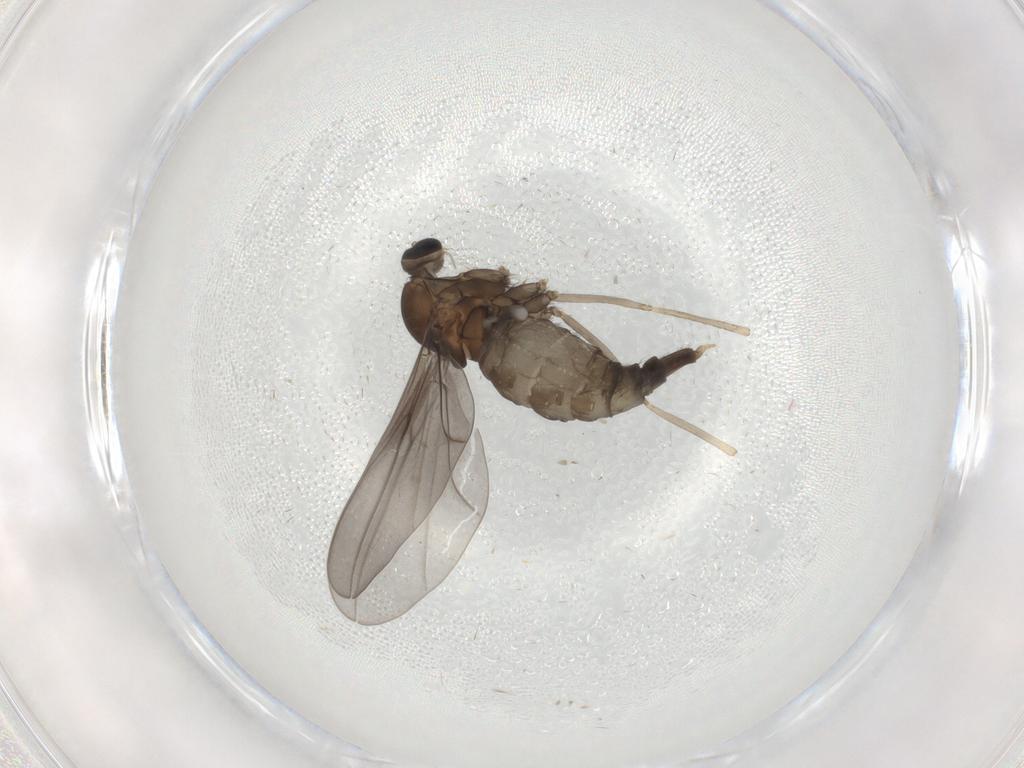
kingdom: Animalia
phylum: Arthropoda
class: Insecta
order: Diptera
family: Cecidomyiidae
